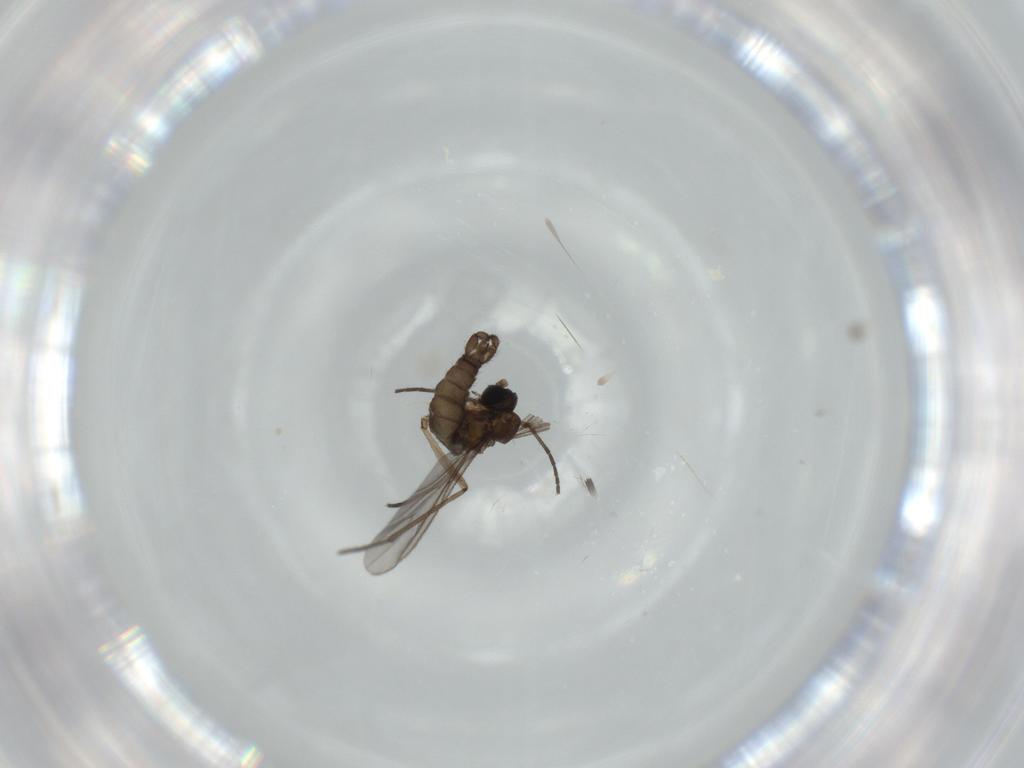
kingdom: Animalia
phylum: Arthropoda
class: Insecta
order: Diptera
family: Sciaridae
